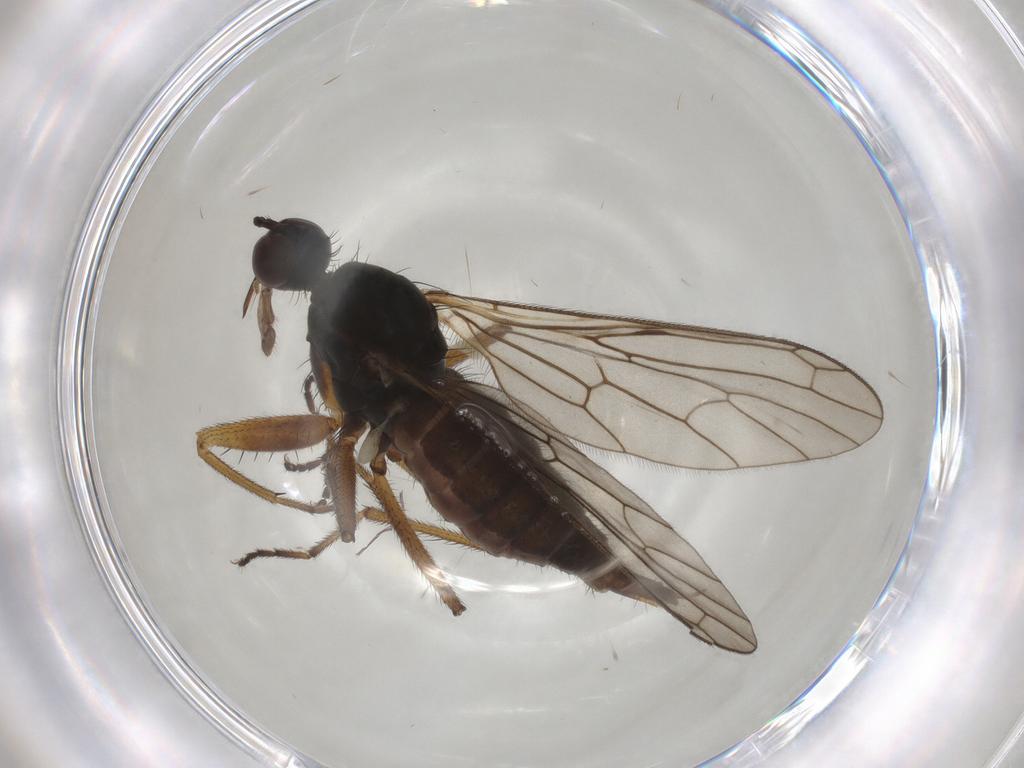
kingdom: Animalia
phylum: Arthropoda
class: Insecta
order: Diptera
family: Empididae
